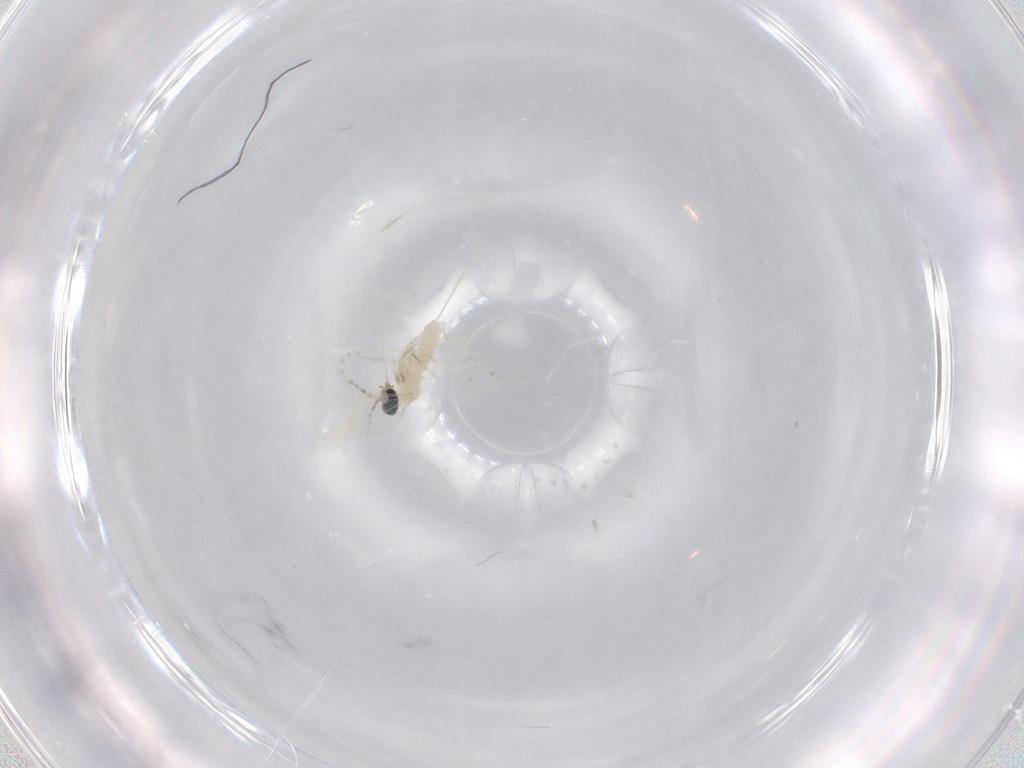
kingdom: Animalia
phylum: Arthropoda
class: Insecta
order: Diptera
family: Cecidomyiidae
